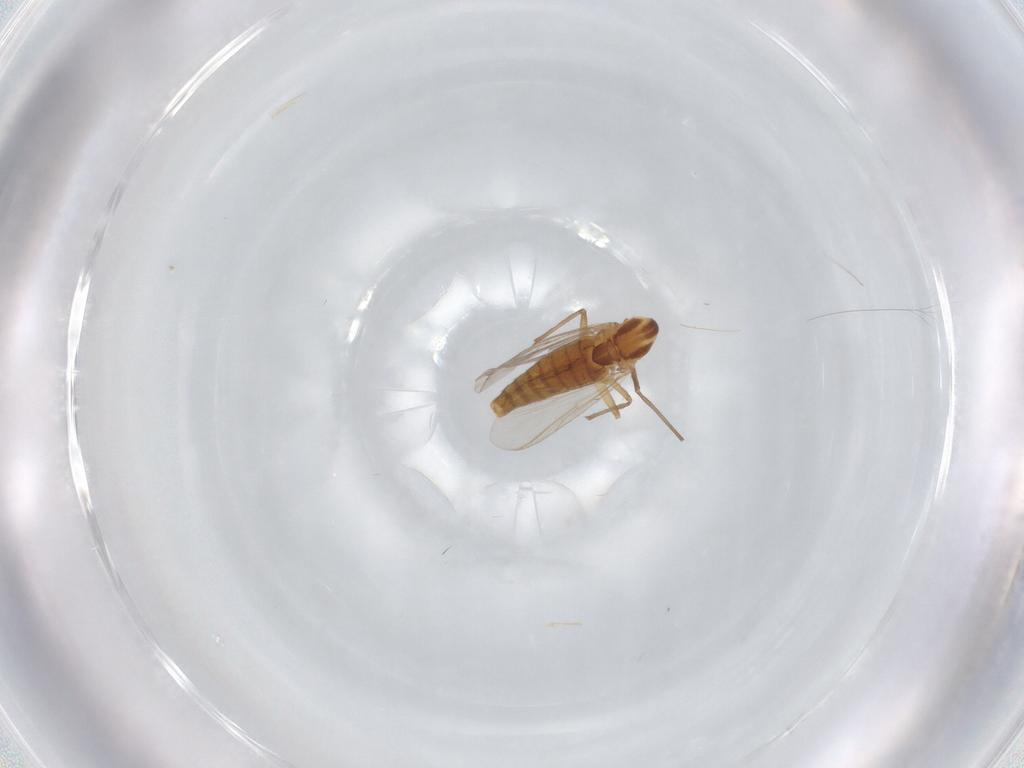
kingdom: Animalia
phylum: Arthropoda
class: Insecta
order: Diptera
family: Chironomidae
